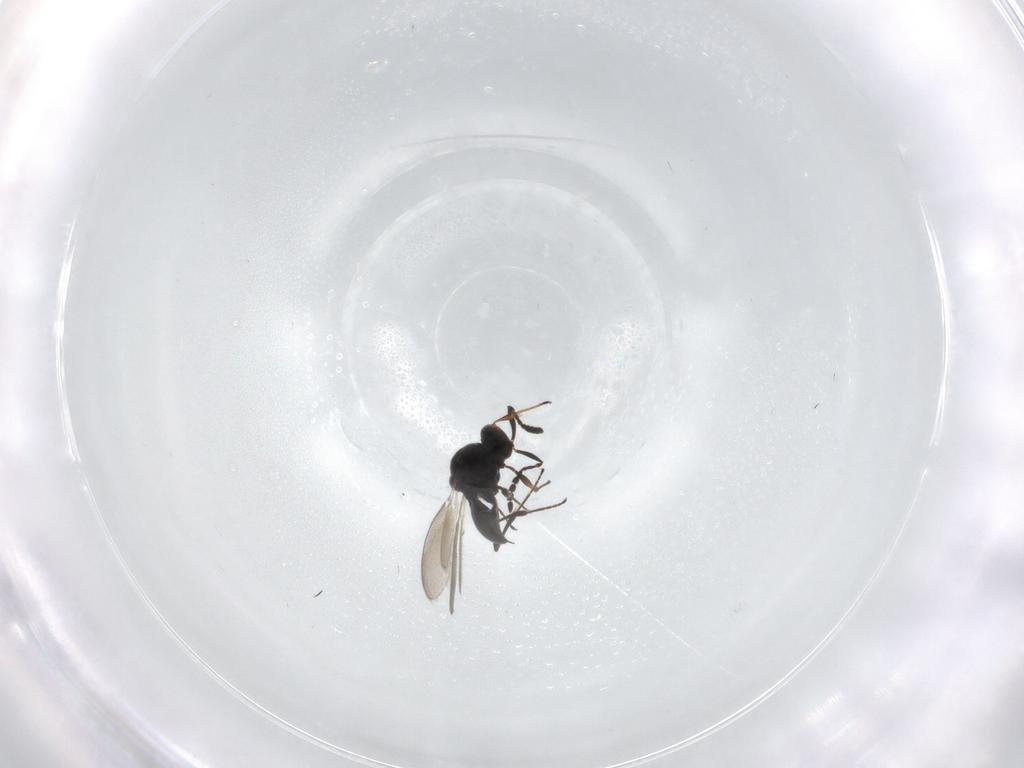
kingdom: Animalia
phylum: Arthropoda
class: Insecta
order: Hymenoptera
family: Platygastridae
